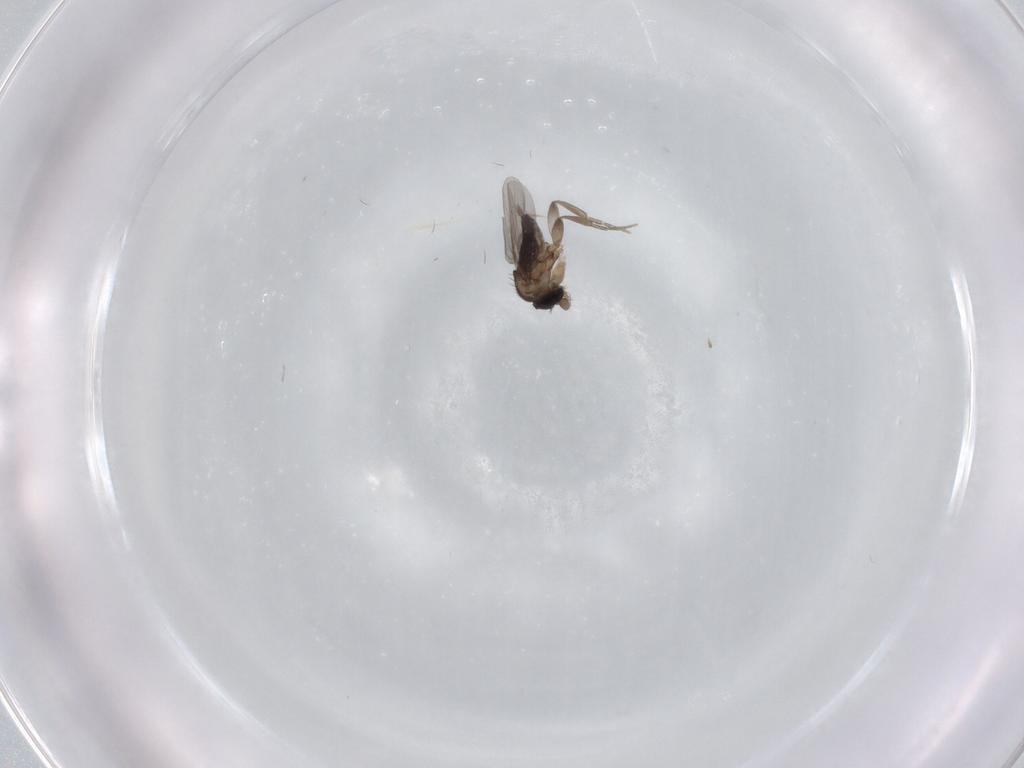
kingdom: Animalia
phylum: Arthropoda
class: Insecta
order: Diptera
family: Phoridae
